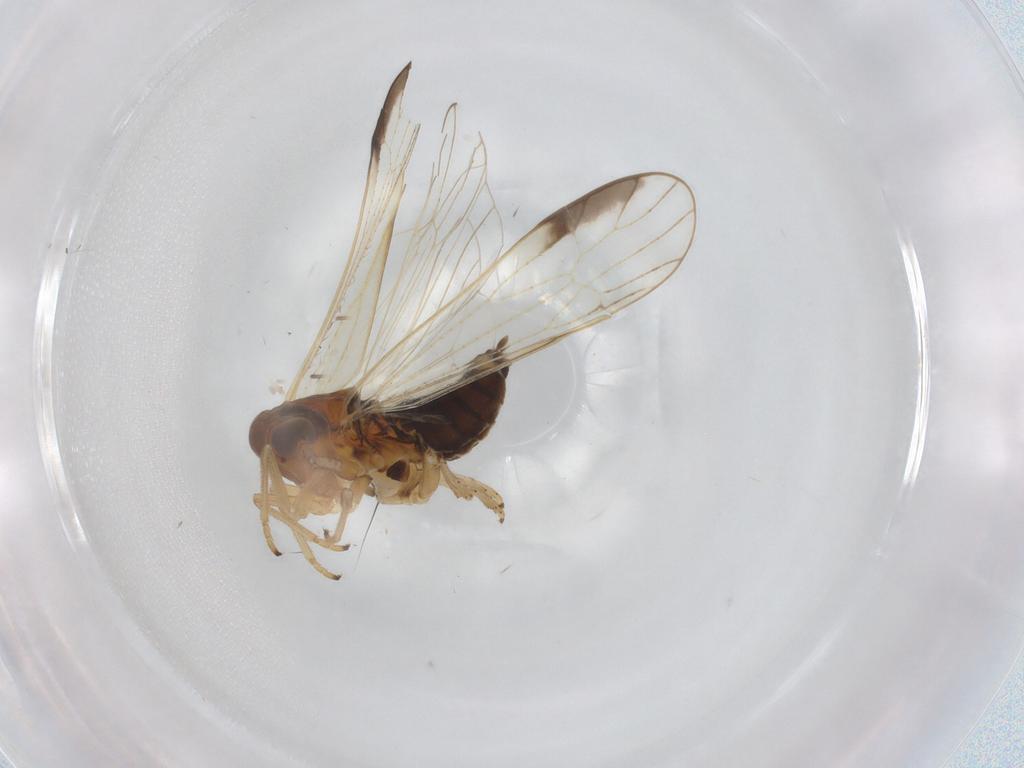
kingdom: Animalia
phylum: Arthropoda
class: Insecta
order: Hemiptera
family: Delphacidae
